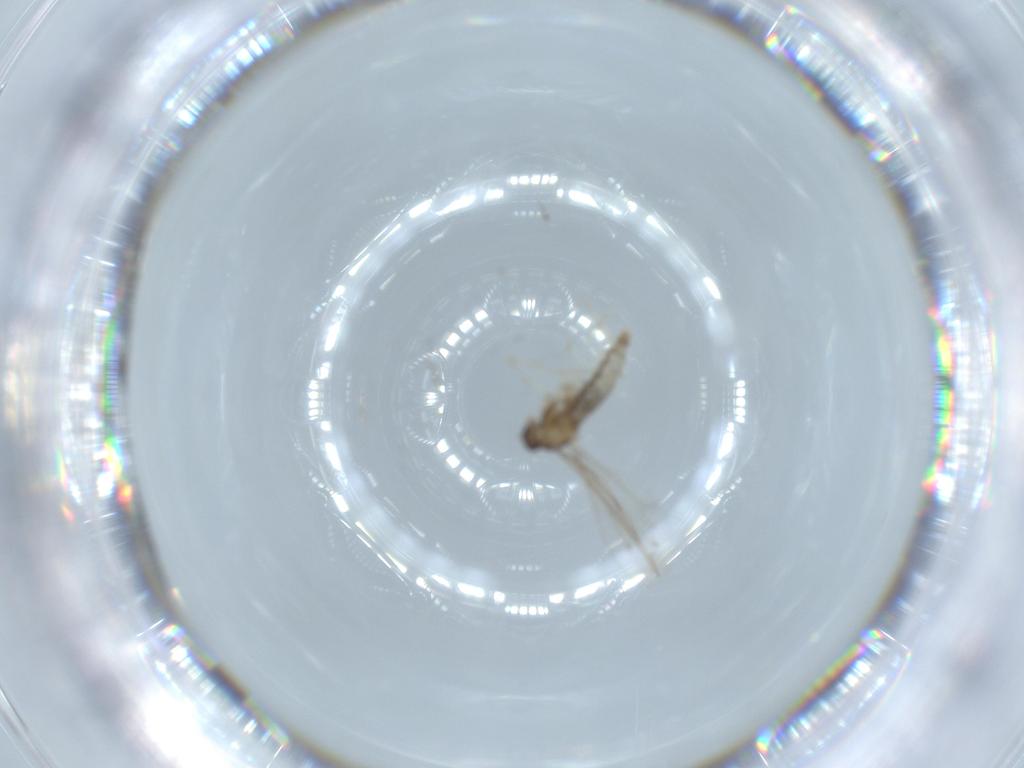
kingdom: Animalia
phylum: Arthropoda
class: Insecta
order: Diptera
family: Cecidomyiidae
